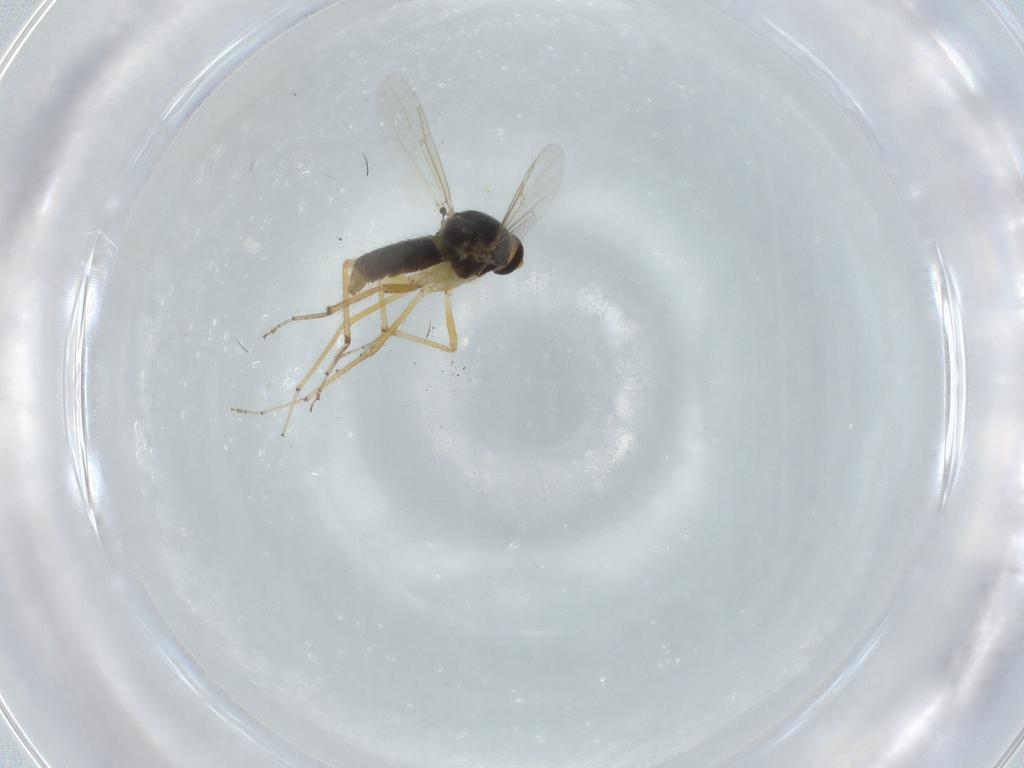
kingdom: Animalia
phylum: Arthropoda
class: Insecta
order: Diptera
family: Ceratopogonidae
